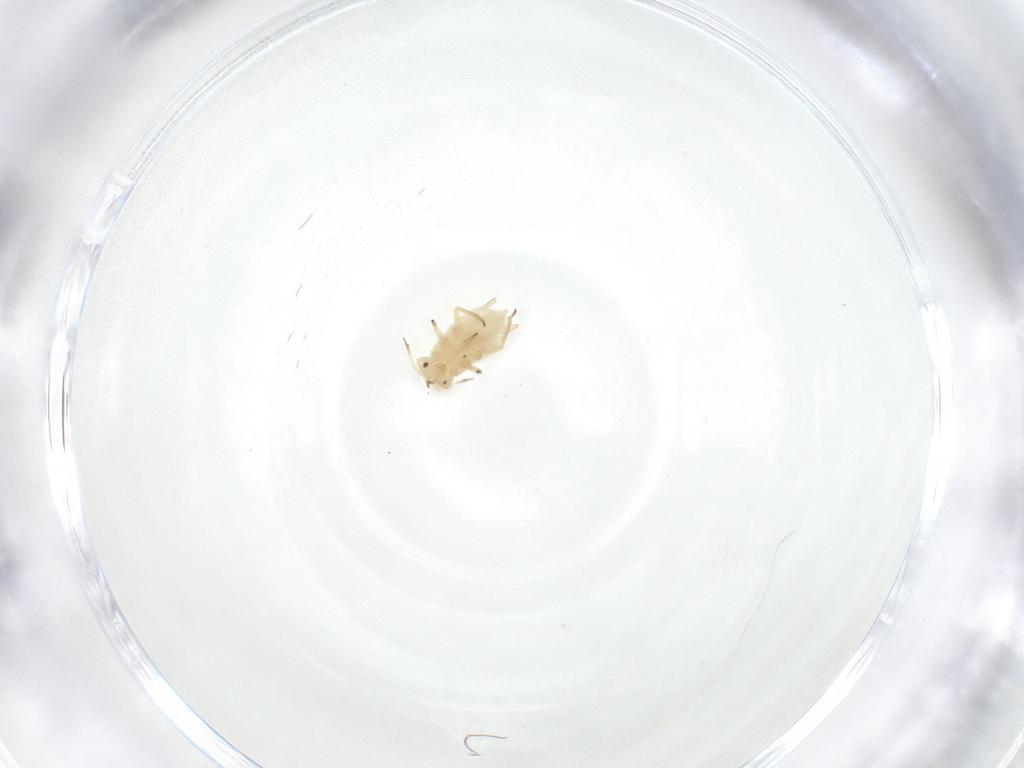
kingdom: Animalia
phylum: Arthropoda
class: Insecta
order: Hemiptera
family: Aphididae
